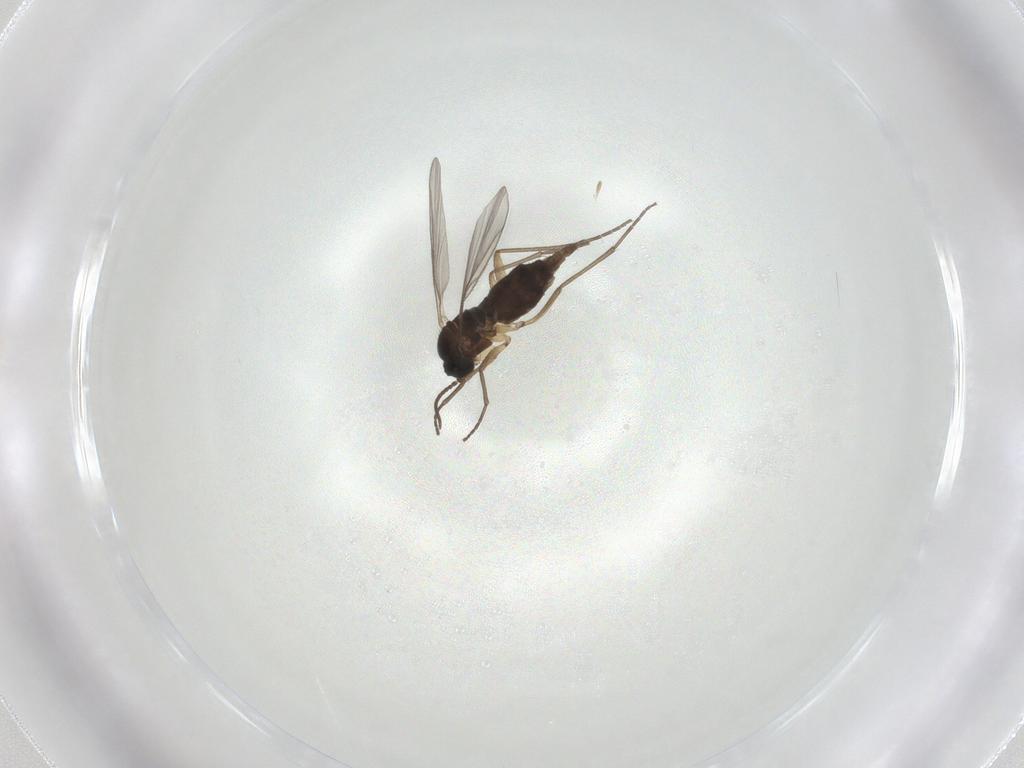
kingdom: Animalia
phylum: Arthropoda
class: Insecta
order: Diptera
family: Sciaridae
